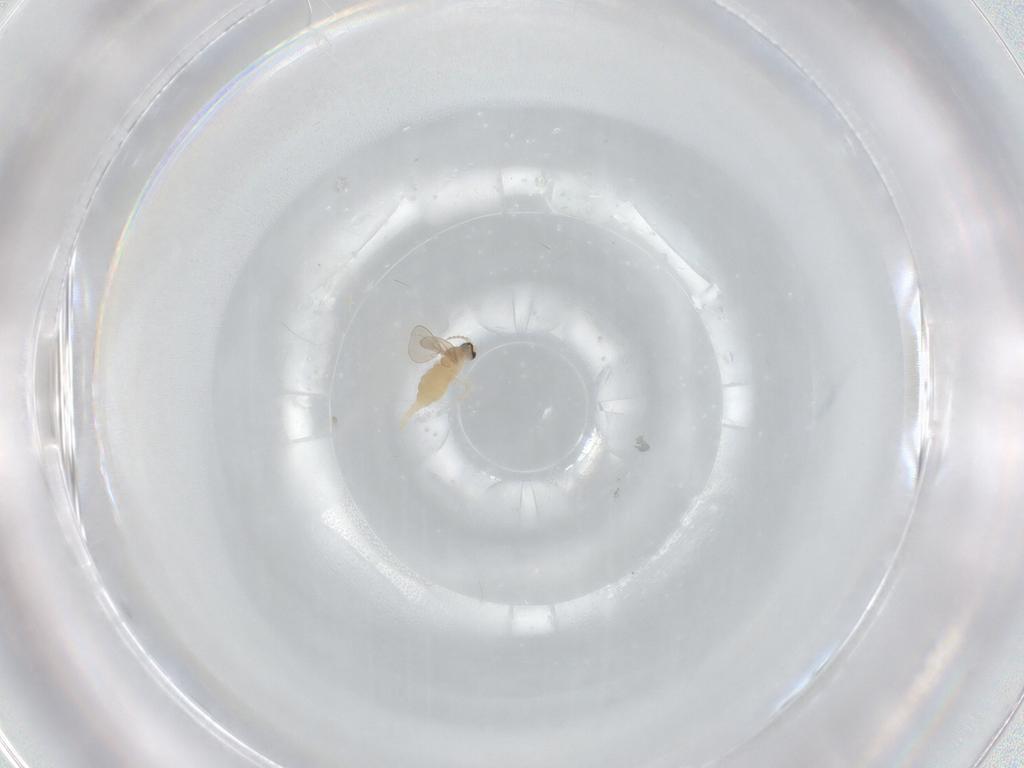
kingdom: Animalia
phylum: Arthropoda
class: Insecta
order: Diptera
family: Cecidomyiidae
